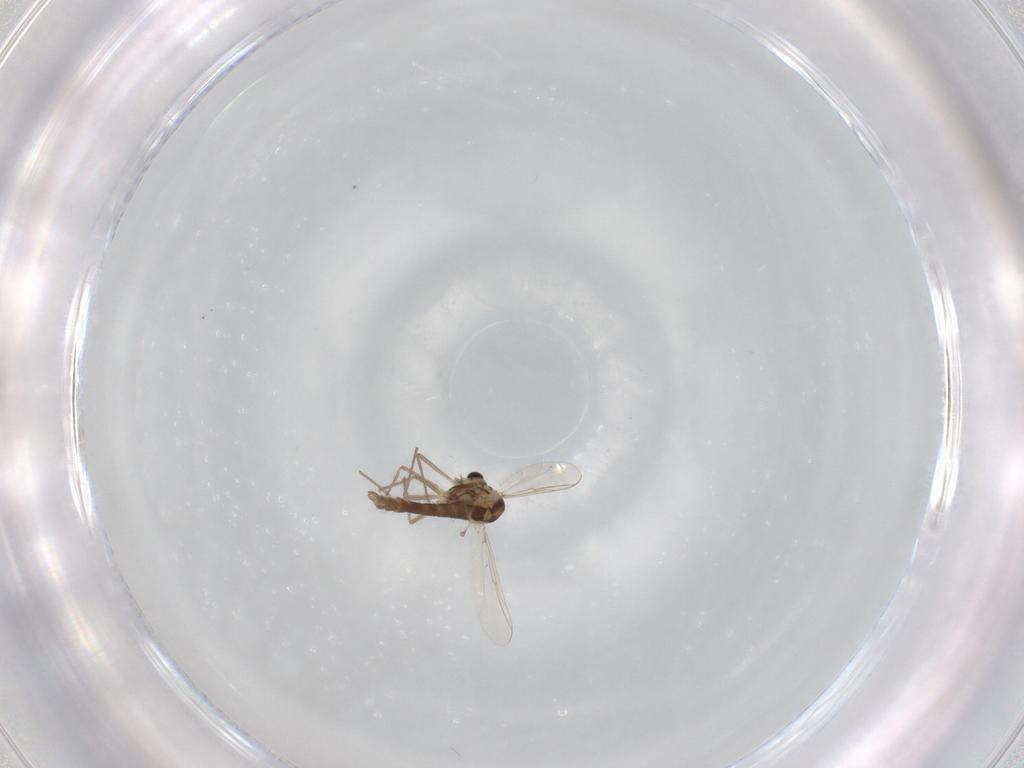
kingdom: Animalia
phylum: Arthropoda
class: Insecta
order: Diptera
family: Chironomidae
